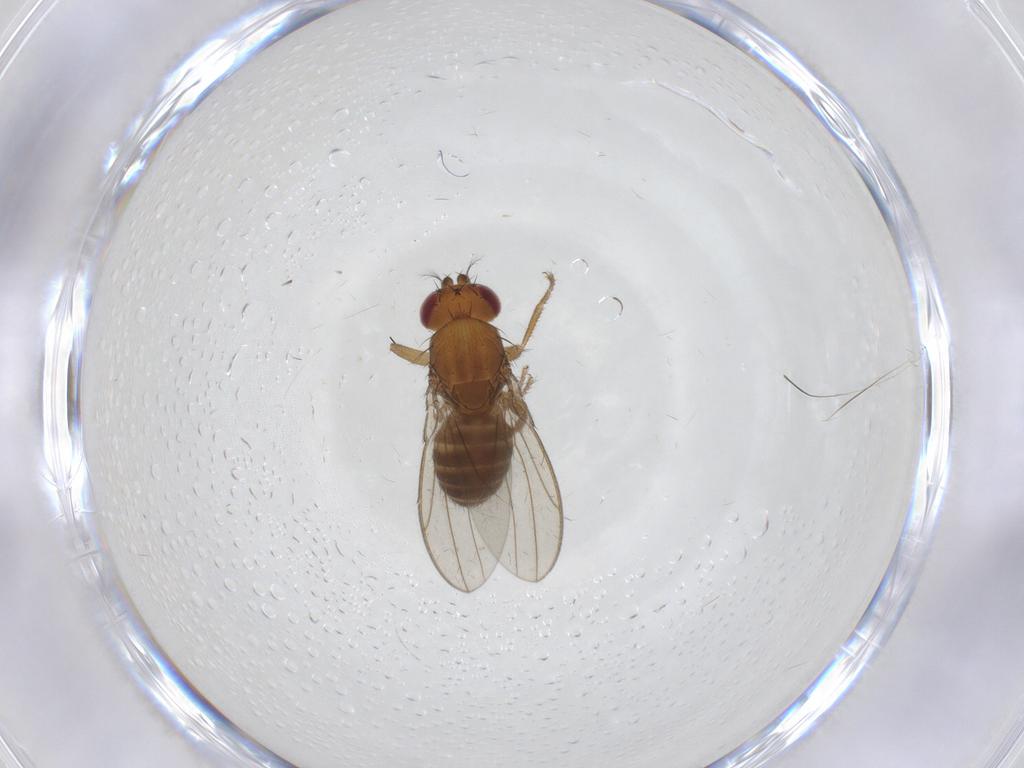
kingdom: Animalia
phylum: Arthropoda
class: Insecta
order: Diptera
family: Drosophilidae
